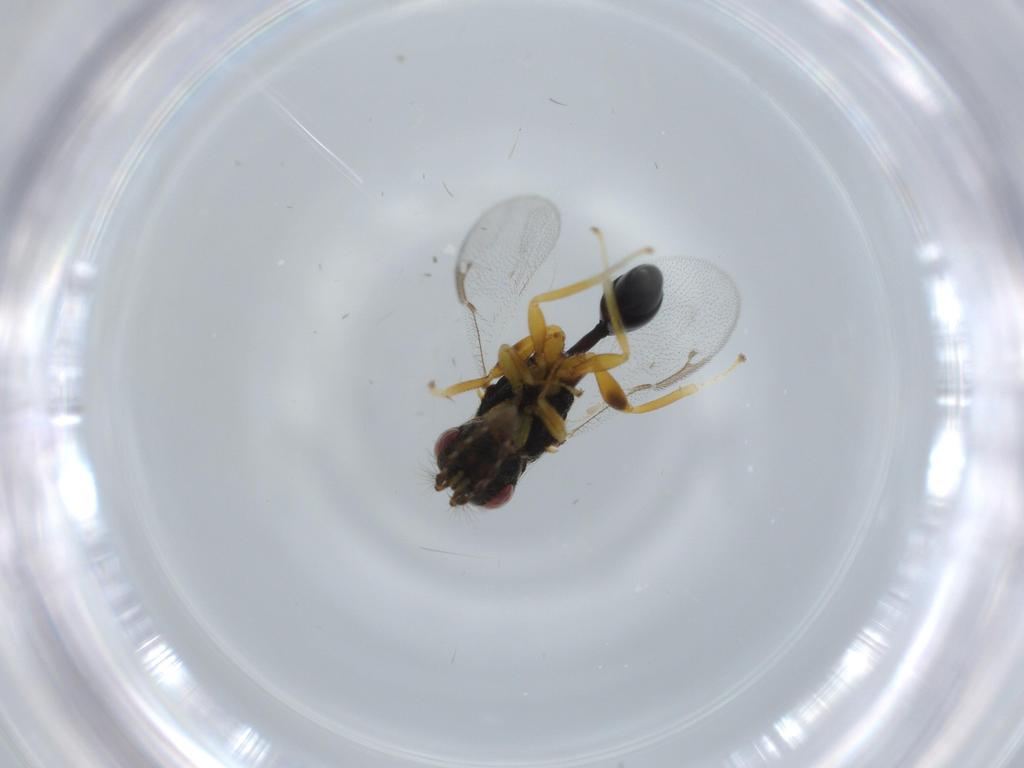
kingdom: Animalia
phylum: Arthropoda
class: Insecta
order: Hymenoptera
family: Eurytomidae
